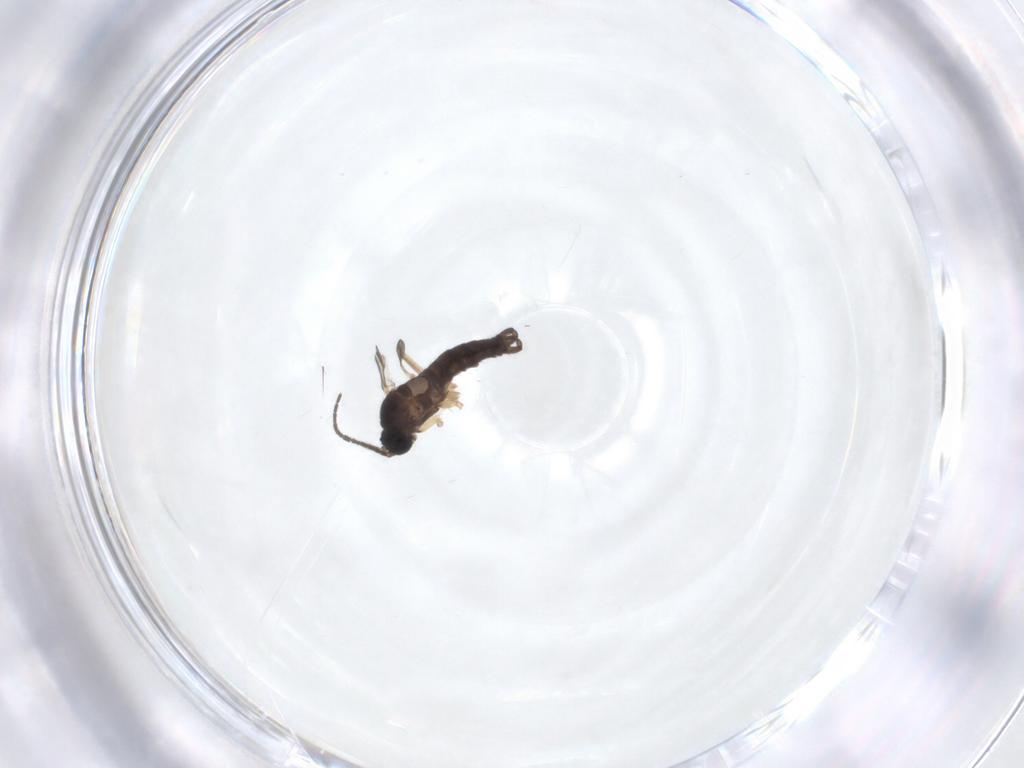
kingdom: Animalia
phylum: Arthropoda
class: Insecta
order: Diptera
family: Sciaridae
